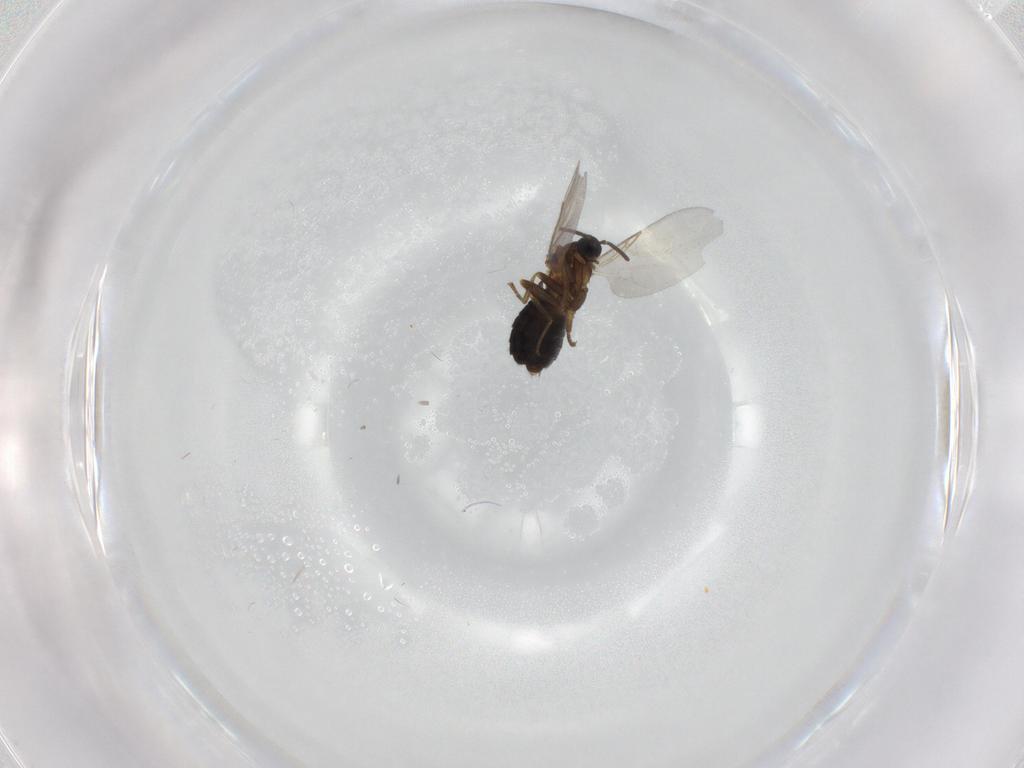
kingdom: Animalia
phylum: Arthropoda
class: Insecta
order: Diptera
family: Scatopsidae
